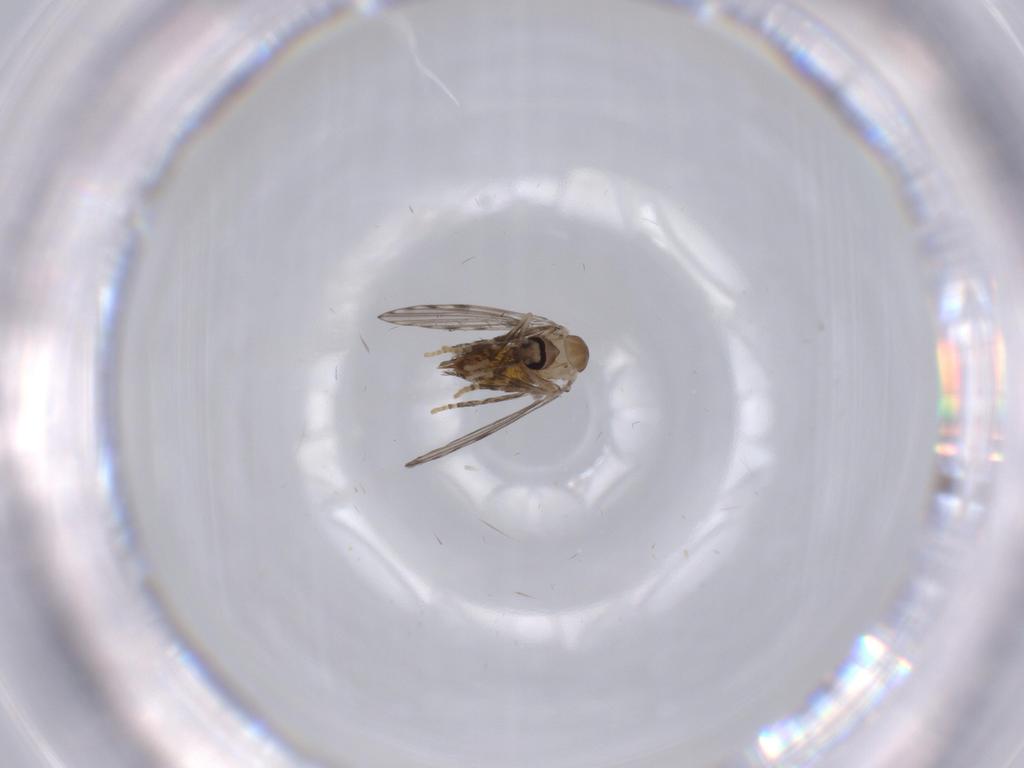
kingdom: Animalia
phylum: Arthropoda
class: Insecta
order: Diptera
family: Psychodidae
